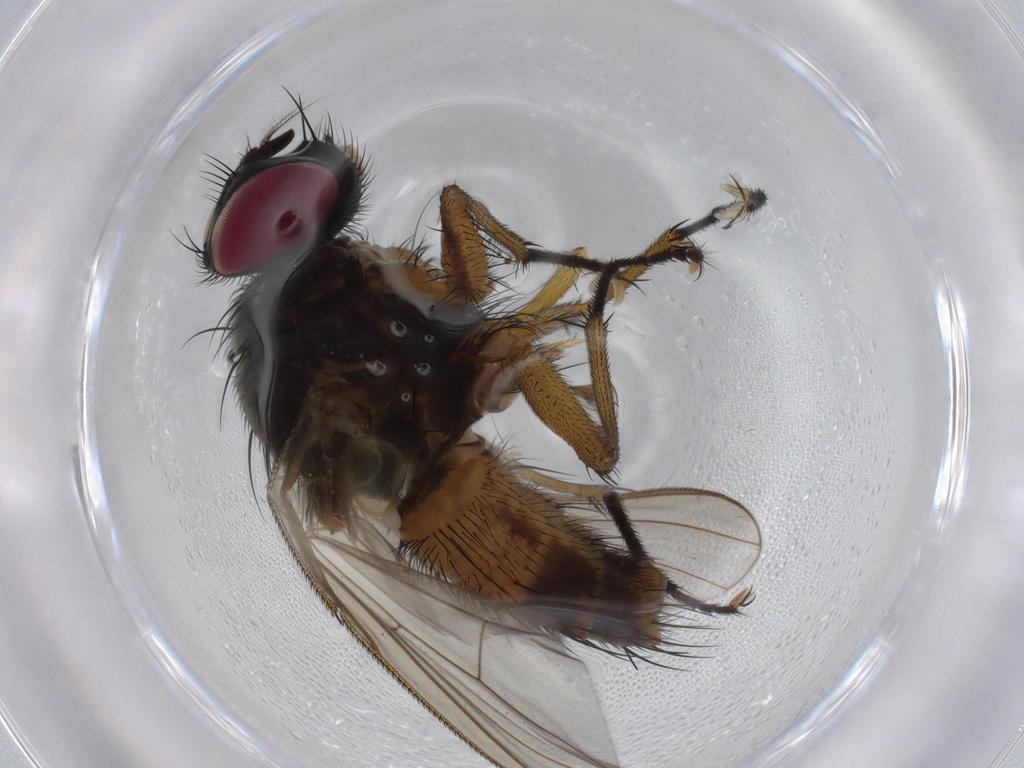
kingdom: Animalia
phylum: Arthropoda
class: Insecta
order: Diptera
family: Muscidae
